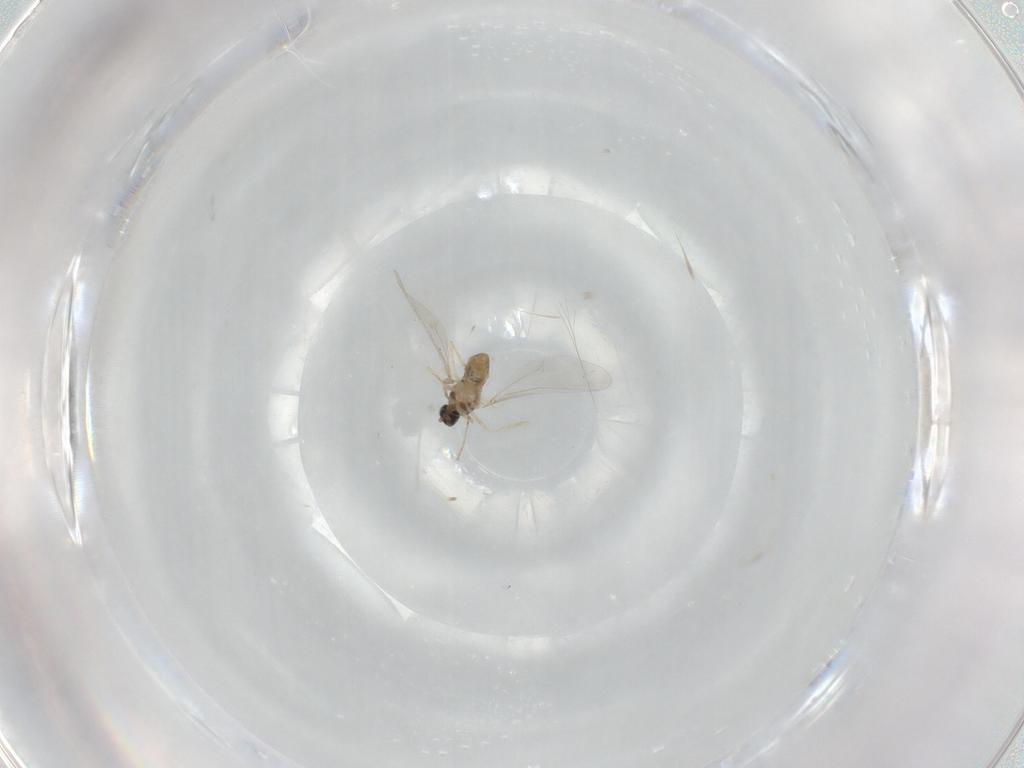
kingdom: Animalia
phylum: Arthropoda
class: Insecta
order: Diptera
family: Cecidomyiidae
